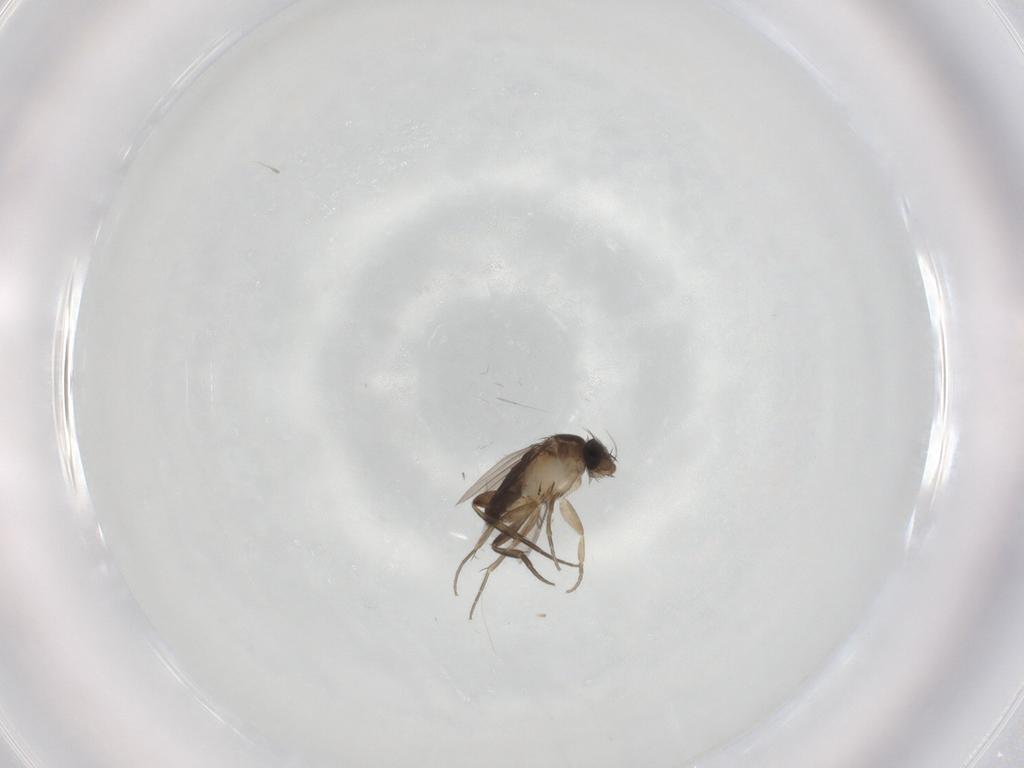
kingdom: Animalia
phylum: Arthropoda
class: Insecta
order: Diptera
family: Phoridae
